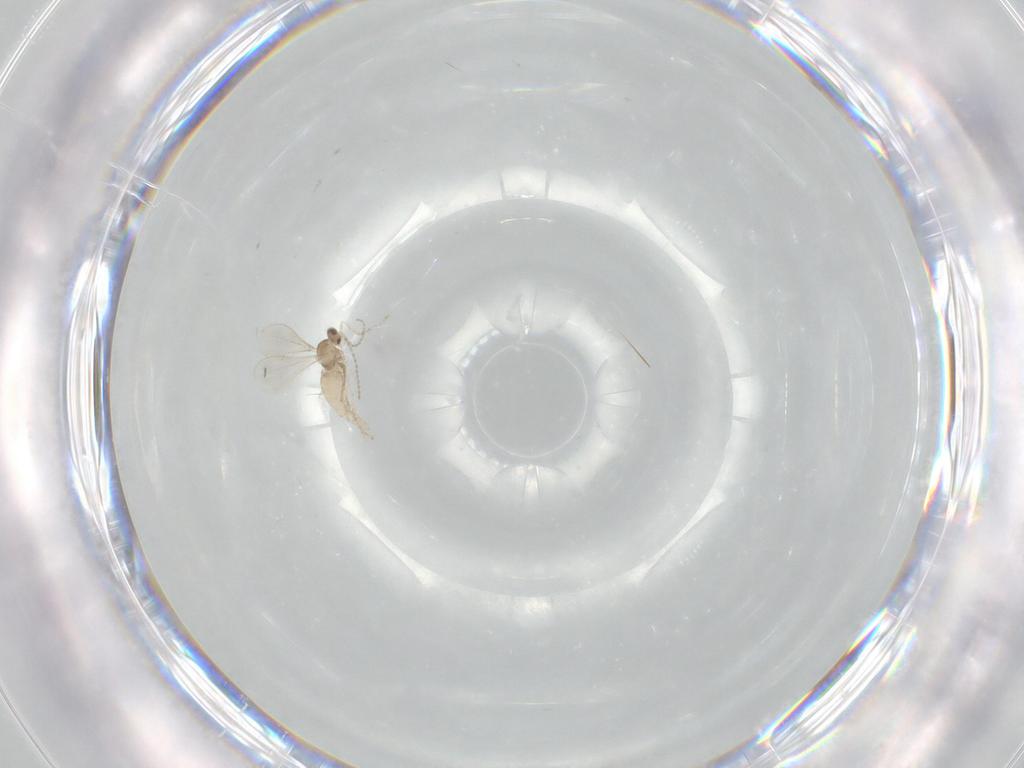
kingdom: Animalia
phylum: Arthropoda
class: Insecta
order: Diptera
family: Cecidomyiidae
